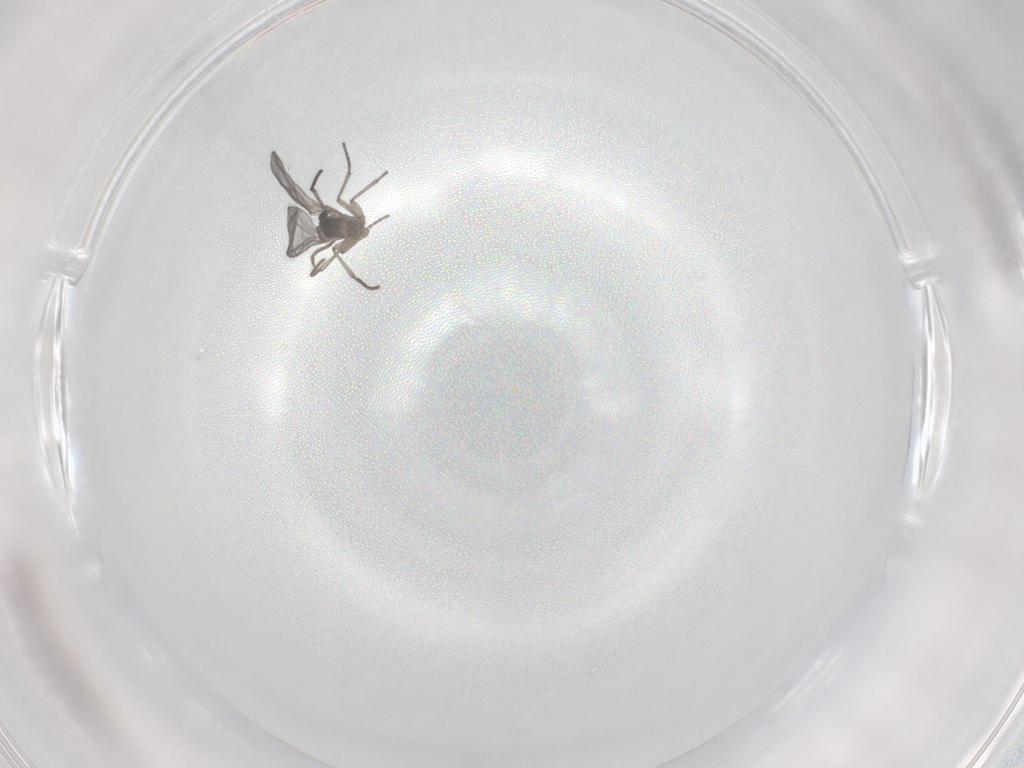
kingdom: Animalia
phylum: Arthropoda
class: Insecta
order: Diptera
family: Sciaridae
